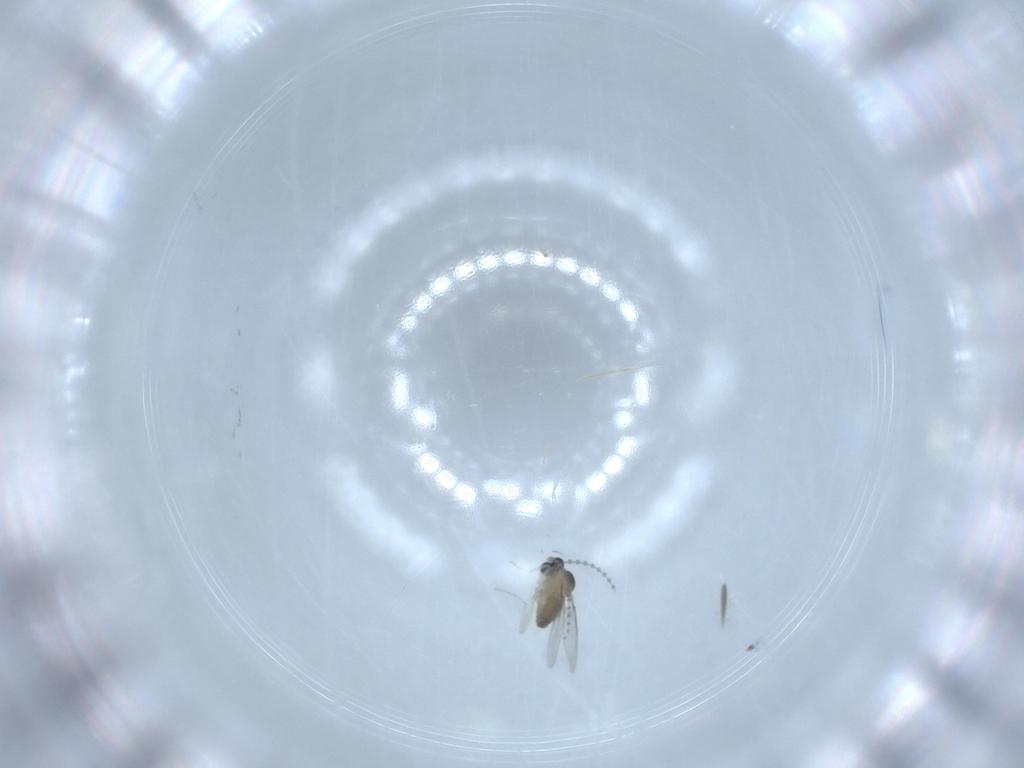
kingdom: Animalia
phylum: Arthropoda
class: Insecta
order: Diptera
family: Cecidomyiidae
